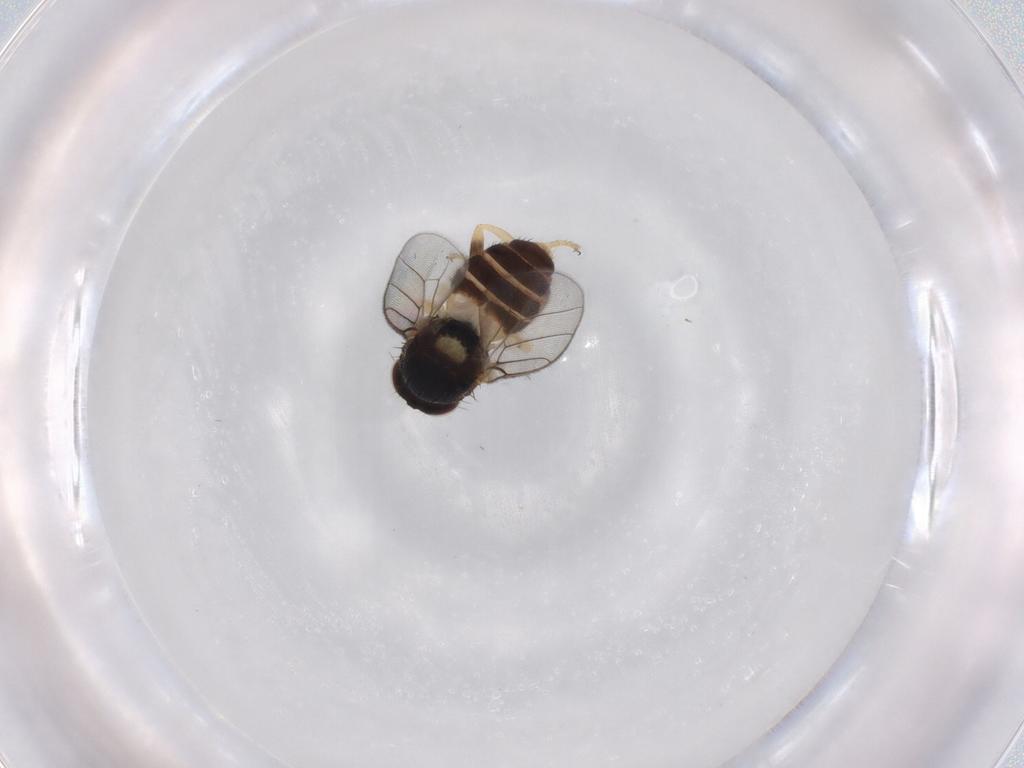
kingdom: Animalia
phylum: Arthropoda
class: Insecta
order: Diptera
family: Chloropidae
